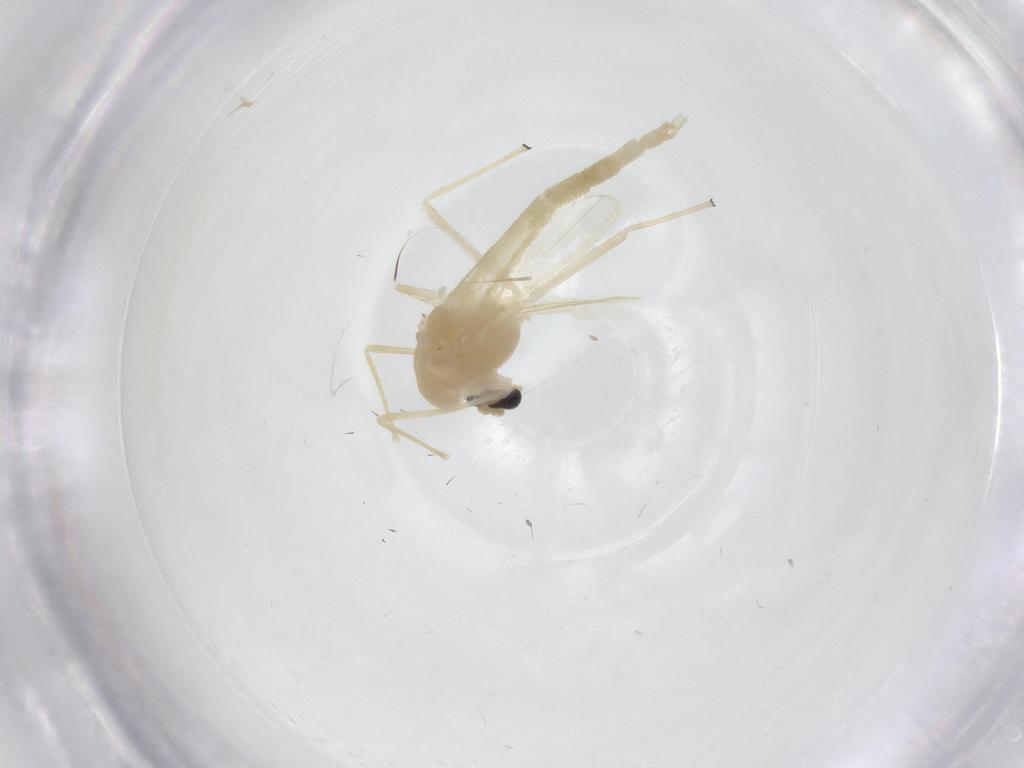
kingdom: Animalia
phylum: Arthropoda
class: Insecta
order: Diptera
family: Chironomidae
